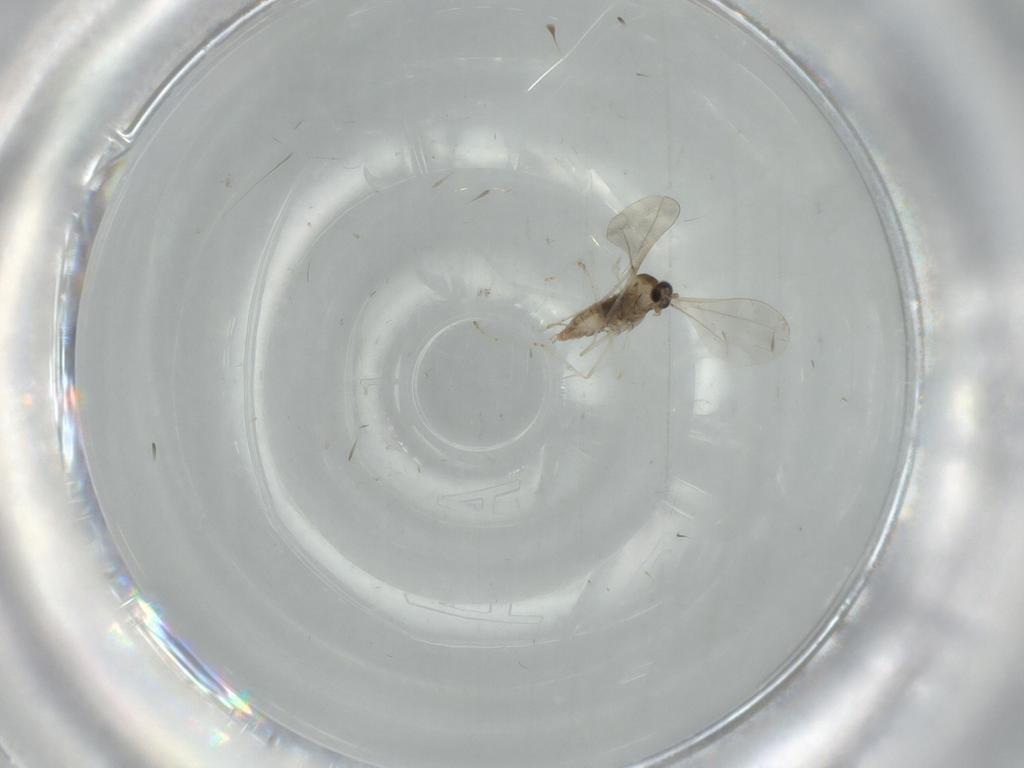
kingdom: Animalia
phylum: Arthropoda
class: Insecta
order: Diptera
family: Cecidomyiidae
